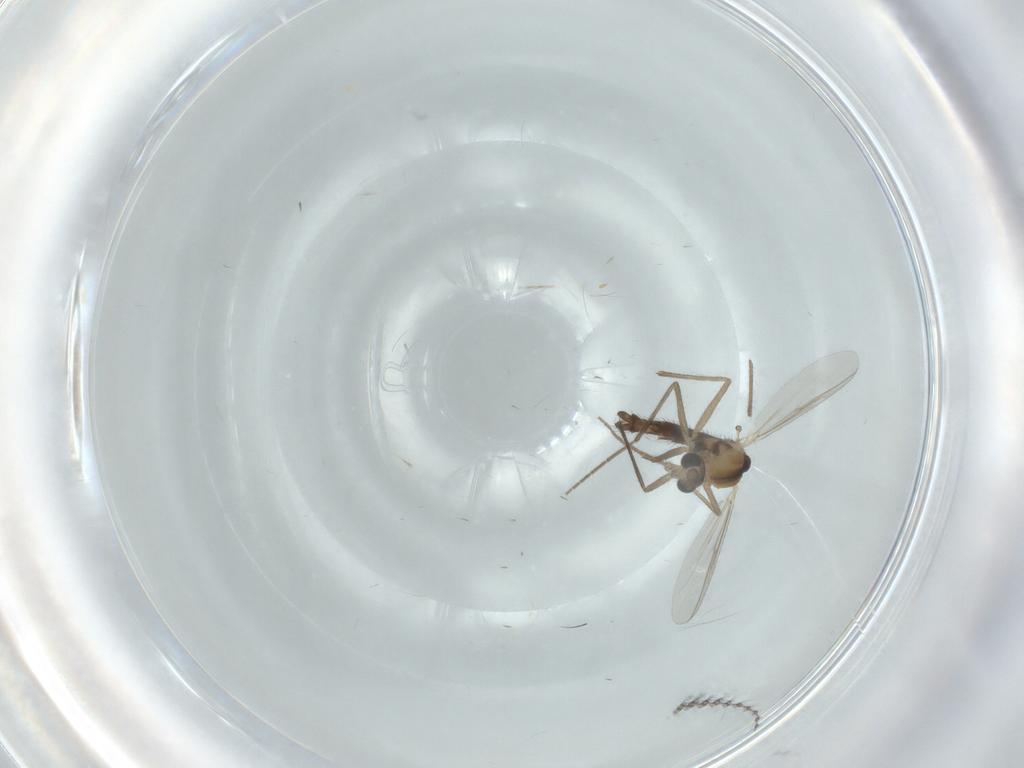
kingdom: Animalia
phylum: Arthropoda
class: Insecta
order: Diptera
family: Chironomidae
